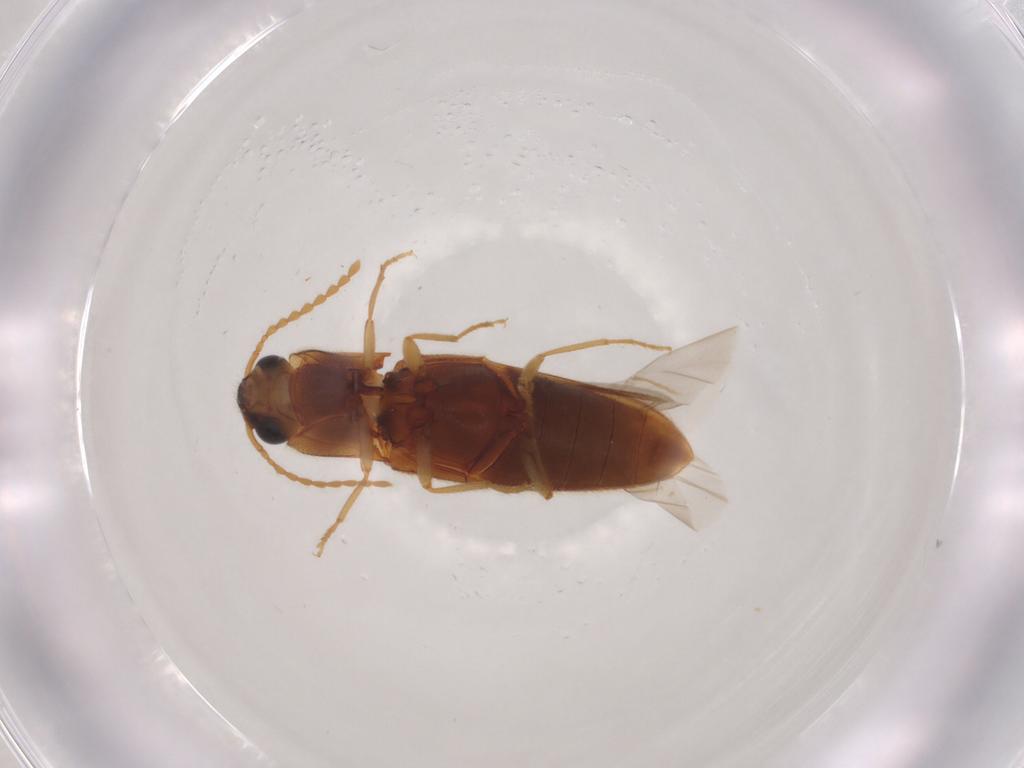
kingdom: Animalia
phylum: Arthropoda
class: Insecta
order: Coleoptera
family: Elateridae
